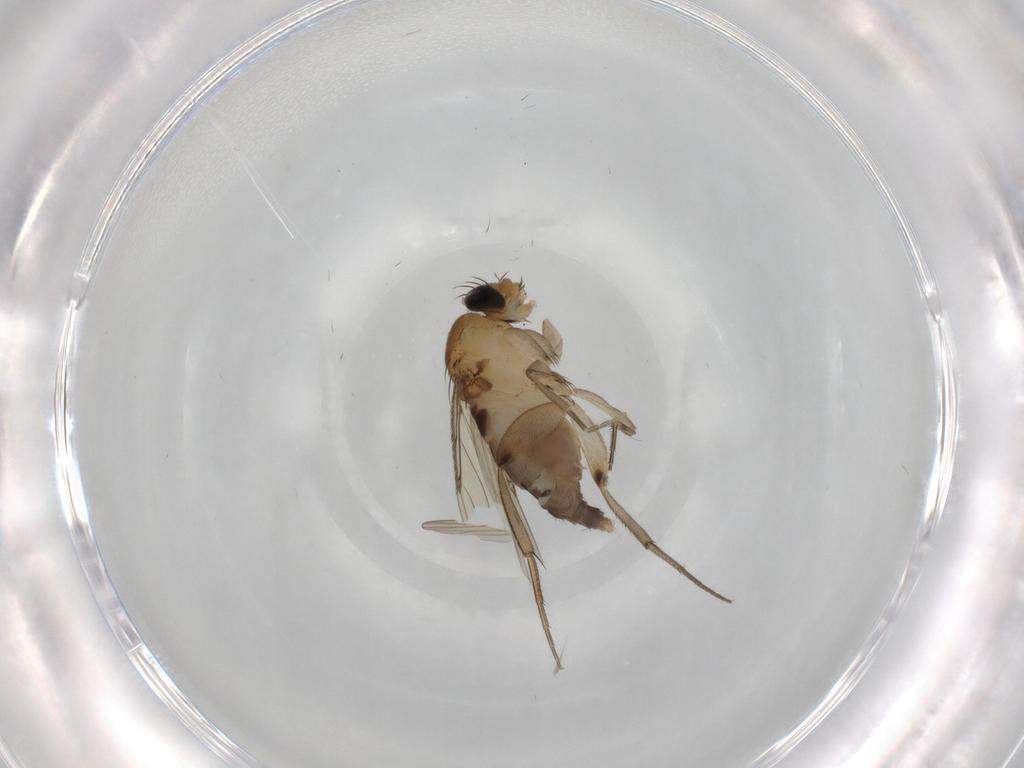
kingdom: Animalia
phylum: Arthropoda
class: Insecta
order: Diptera
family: Phoridae
